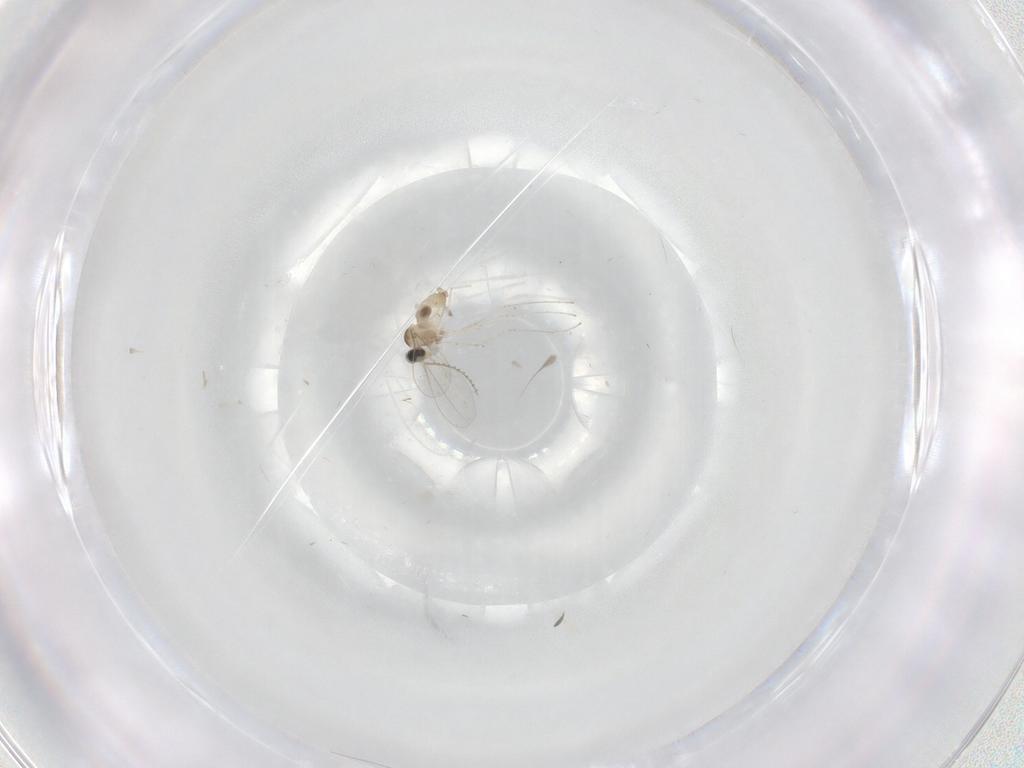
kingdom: Animalia
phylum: Arthropoda
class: Insecta
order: Diptera
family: Cecidomyiidae
